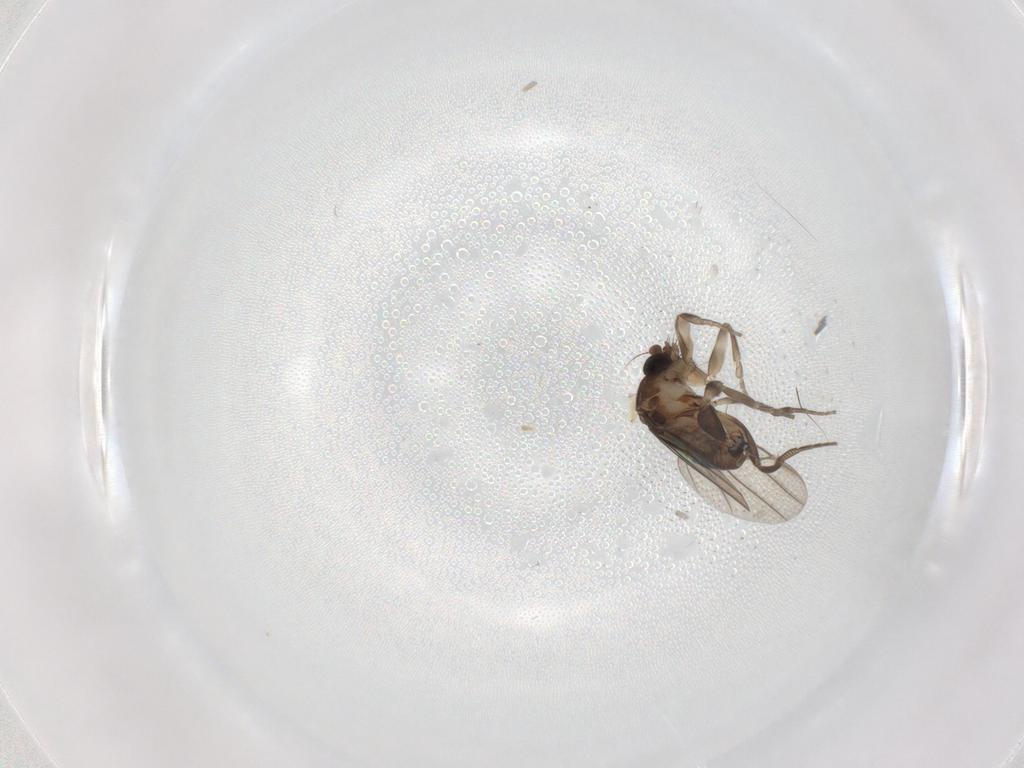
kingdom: Animalia
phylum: Arthropoda
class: Insecta
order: Diptera
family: Phoridae
